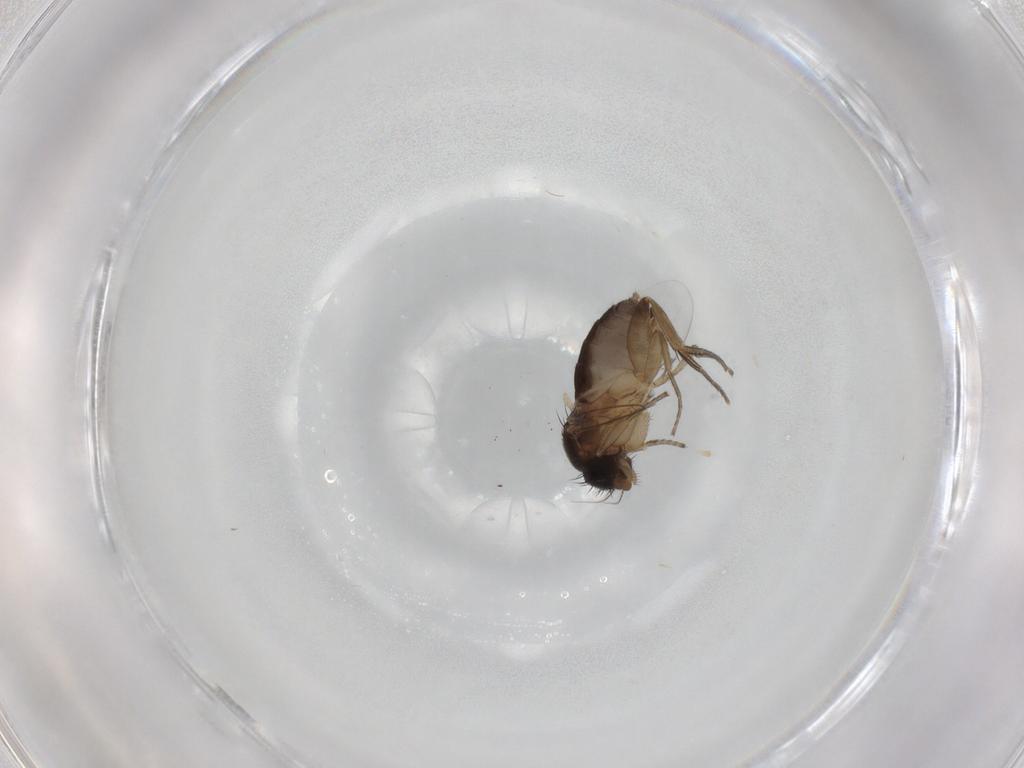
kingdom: Animalia
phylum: Arthropoda
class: Insecta
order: Diptera
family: Phoridae
